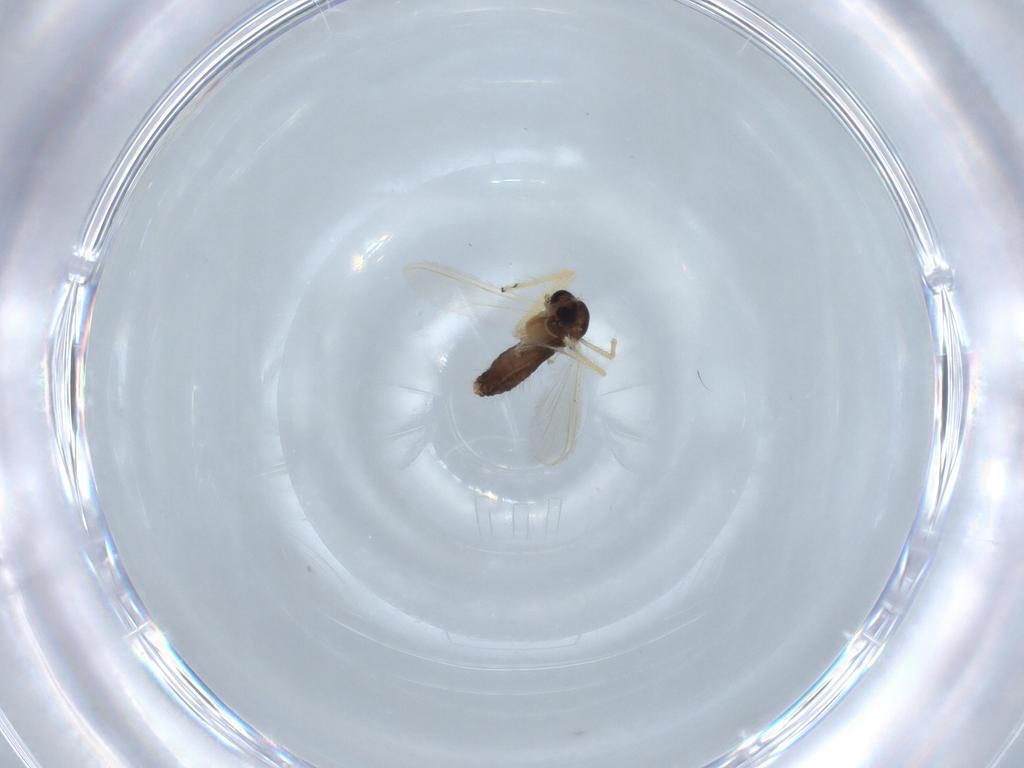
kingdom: Animalia
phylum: Arthropoda
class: Insecta
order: Diptera
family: Chironomidae
